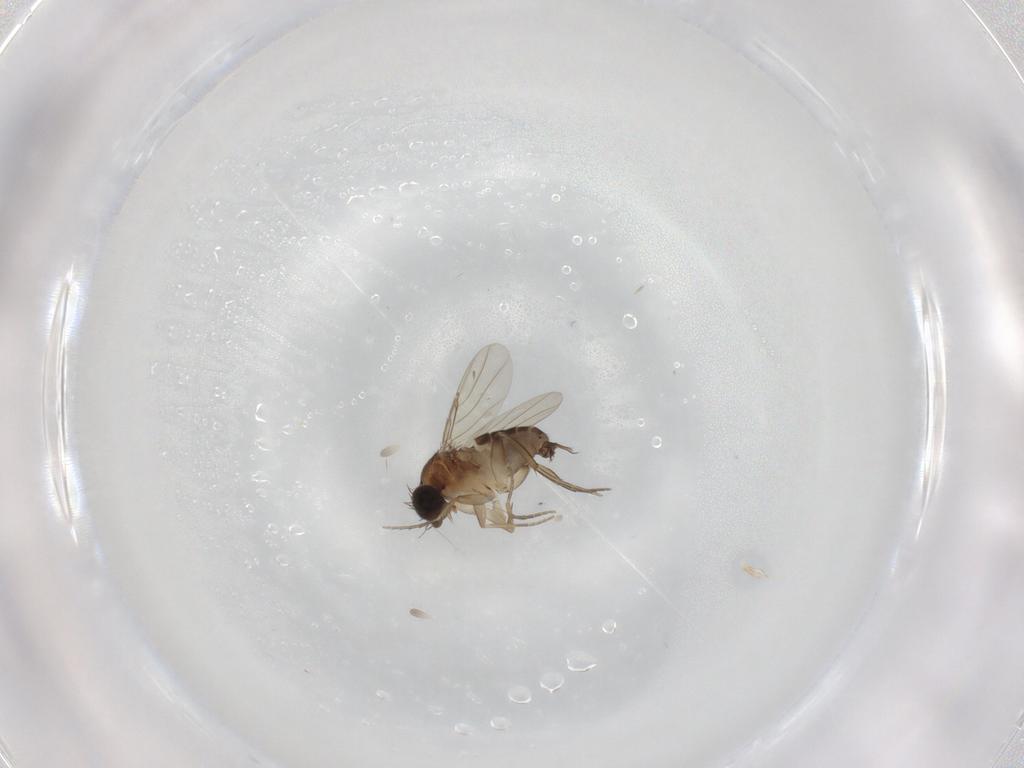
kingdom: Animalia
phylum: Arthropoda
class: Insecta
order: Diptera
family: Phoridae
